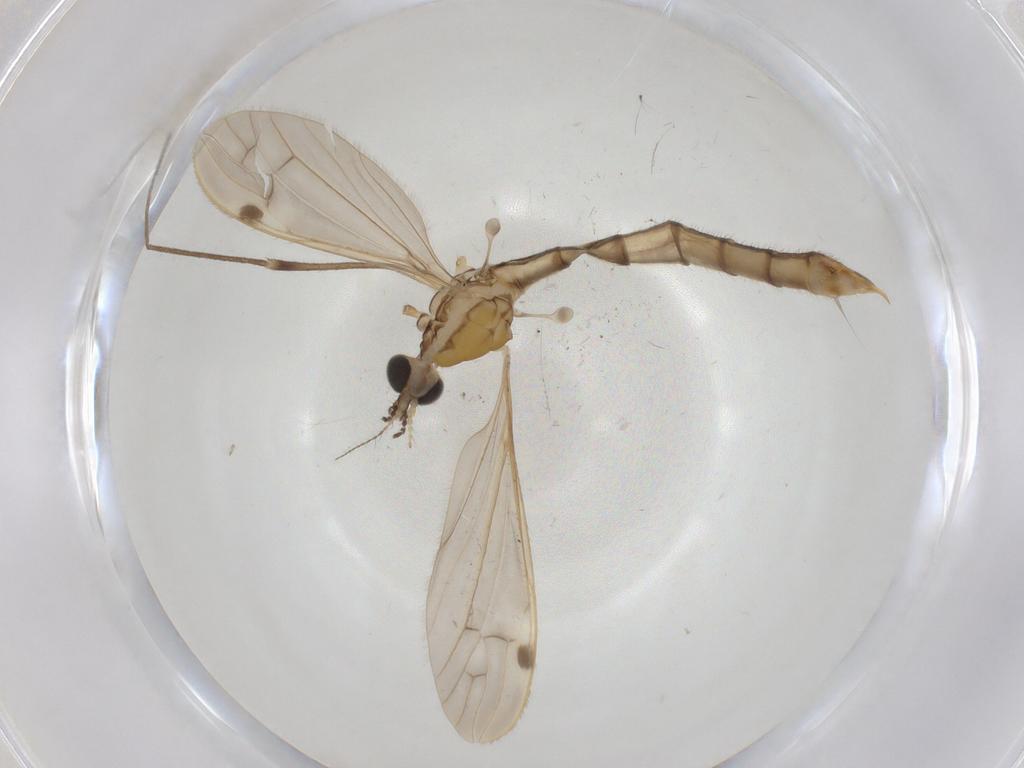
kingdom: Animalia
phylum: Arthropoda
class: Insecta
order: Diptera
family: Limoniidae
